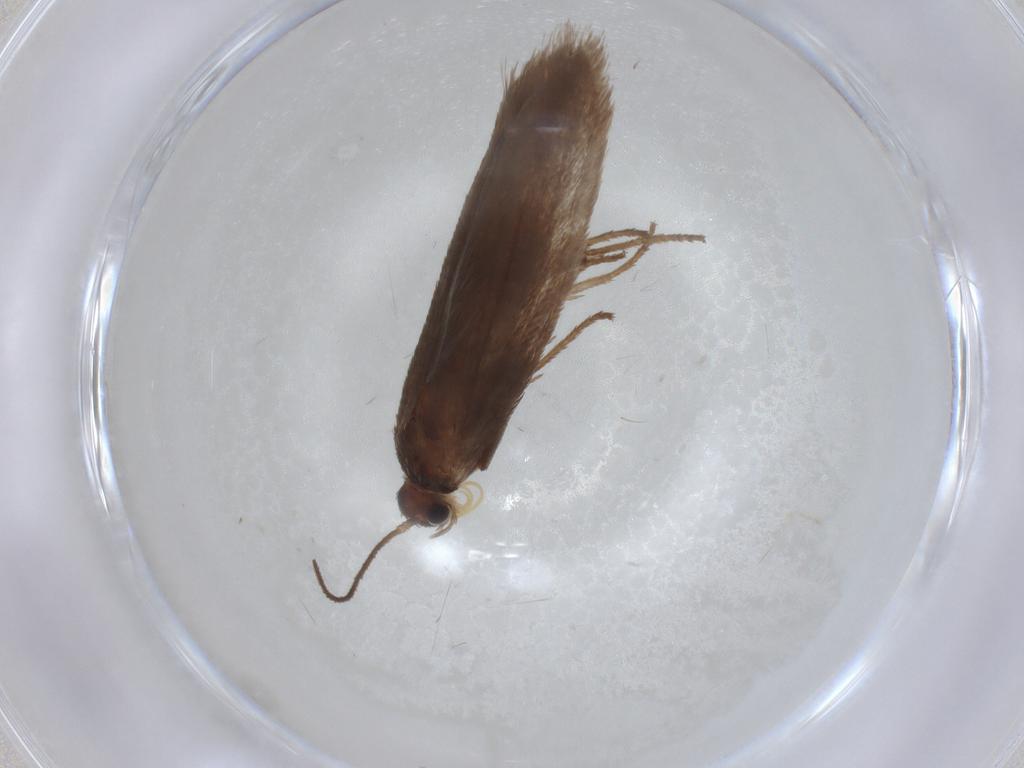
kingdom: Animalia
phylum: Arthropoda
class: Insecta
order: Lepidoptera
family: Limacodidae
